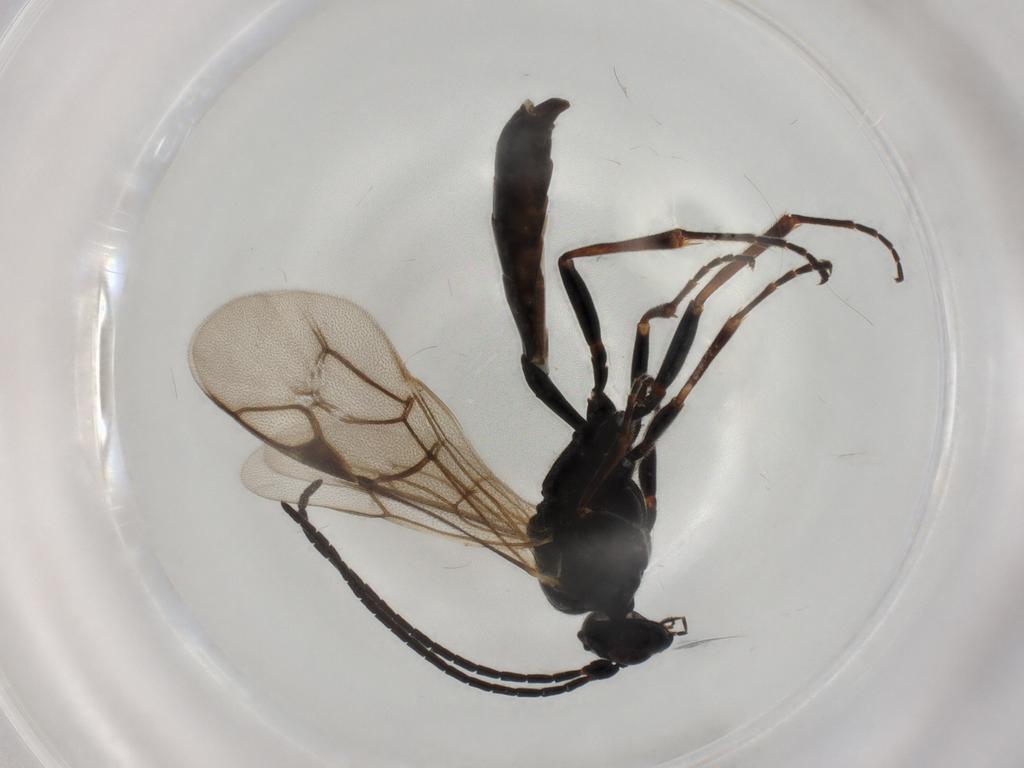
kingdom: Animalia
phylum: Arthropoda
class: Insecta
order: Hymenoptera
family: Ichneumonidae
